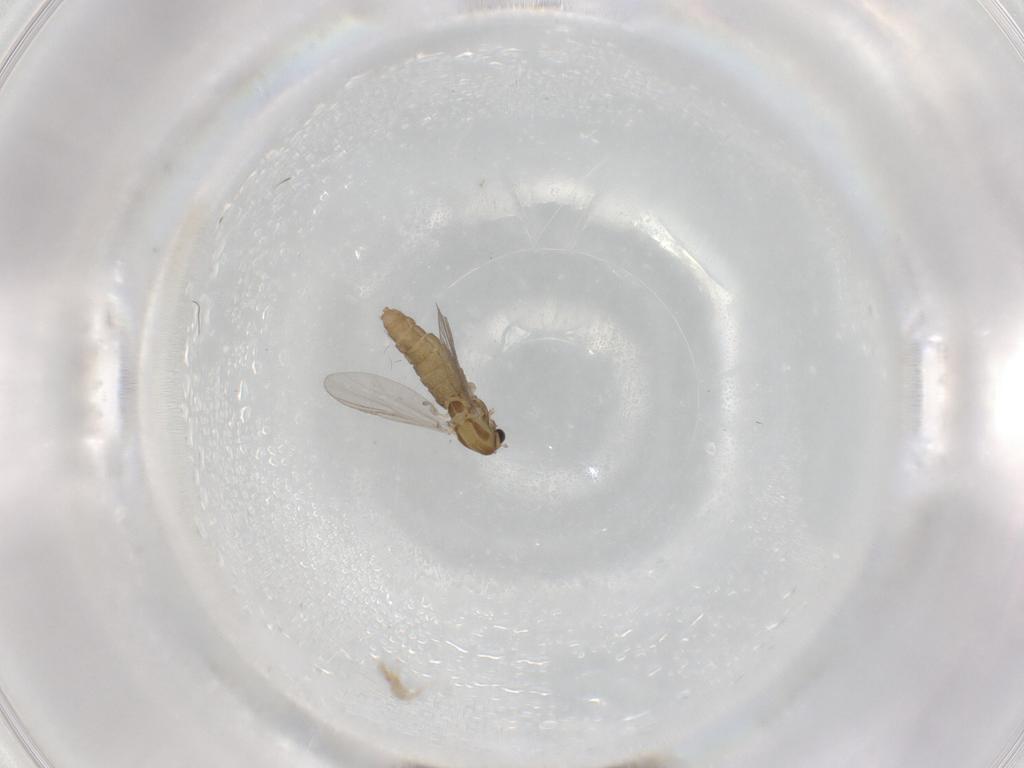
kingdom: Animalia
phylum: Arthropoda
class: Insecta
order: Diptera
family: Chironomidae
